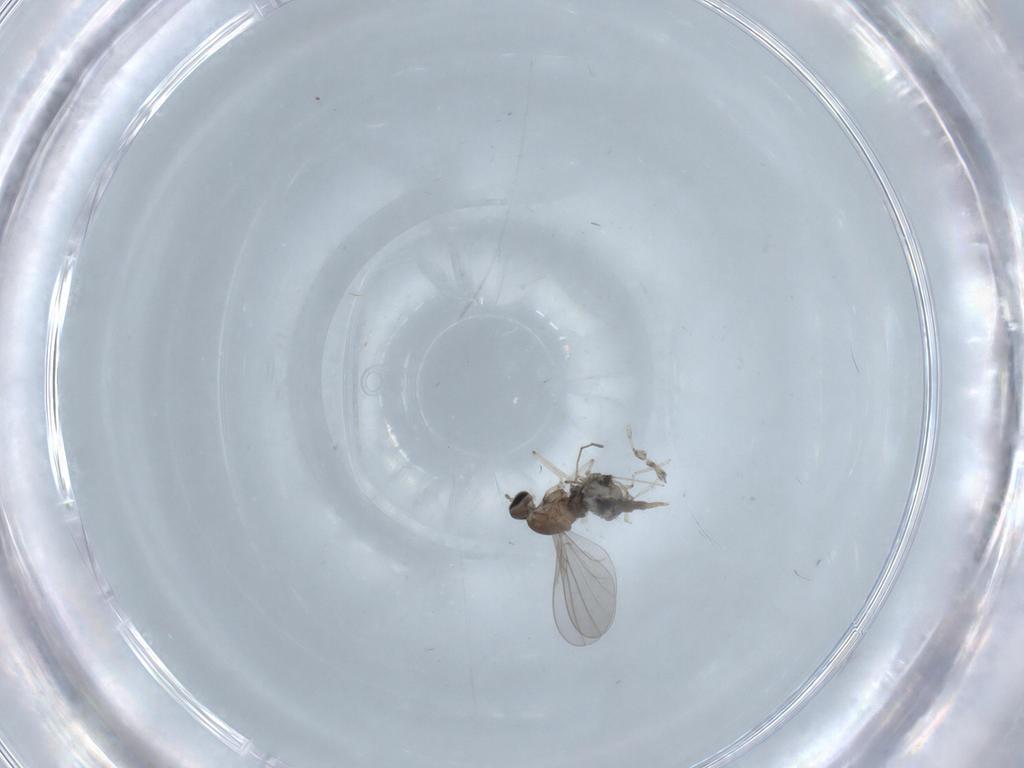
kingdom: Animalia
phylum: Arthropoda
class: Insecta
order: Diptera
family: Cecidomyiidae
